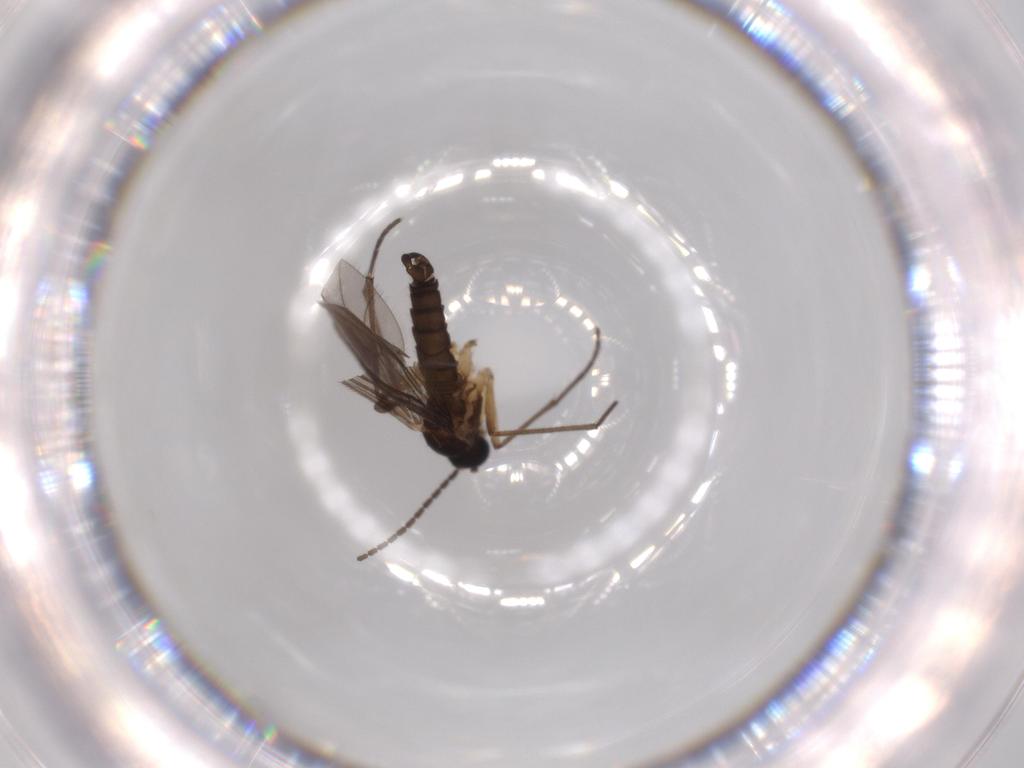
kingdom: Animalia
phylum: Arthropoda
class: Insecta
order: Diptera
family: Sciaridae
